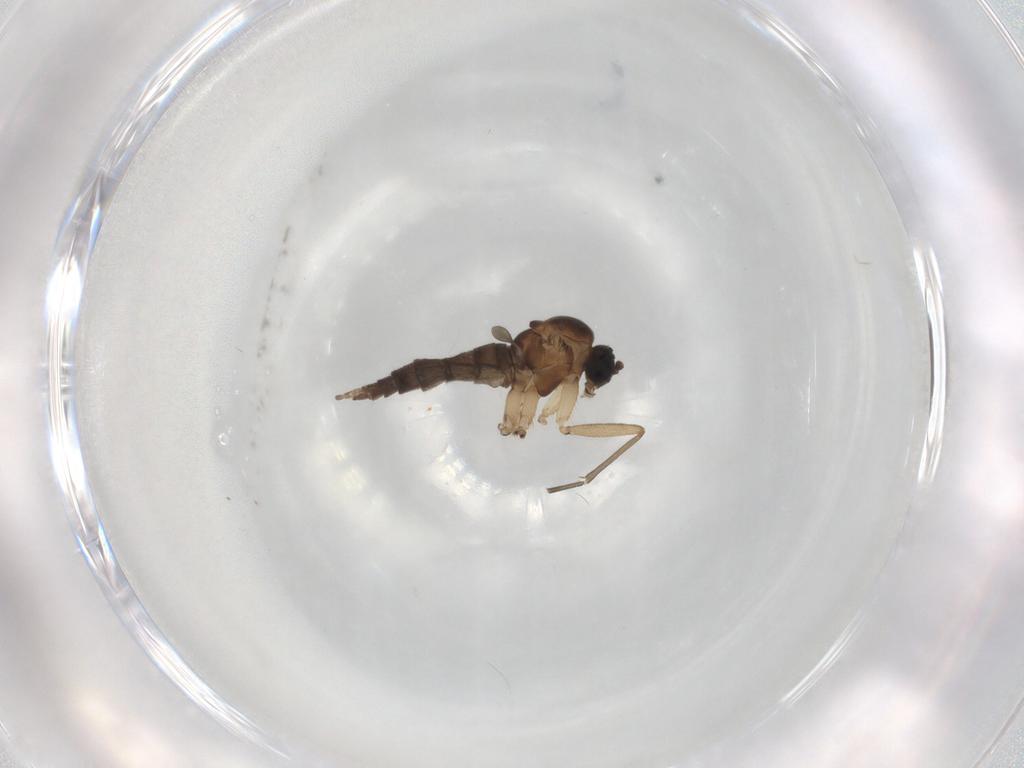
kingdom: Animalia
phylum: Arthropoda
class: Insecta
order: Diptera
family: Sciaridae
